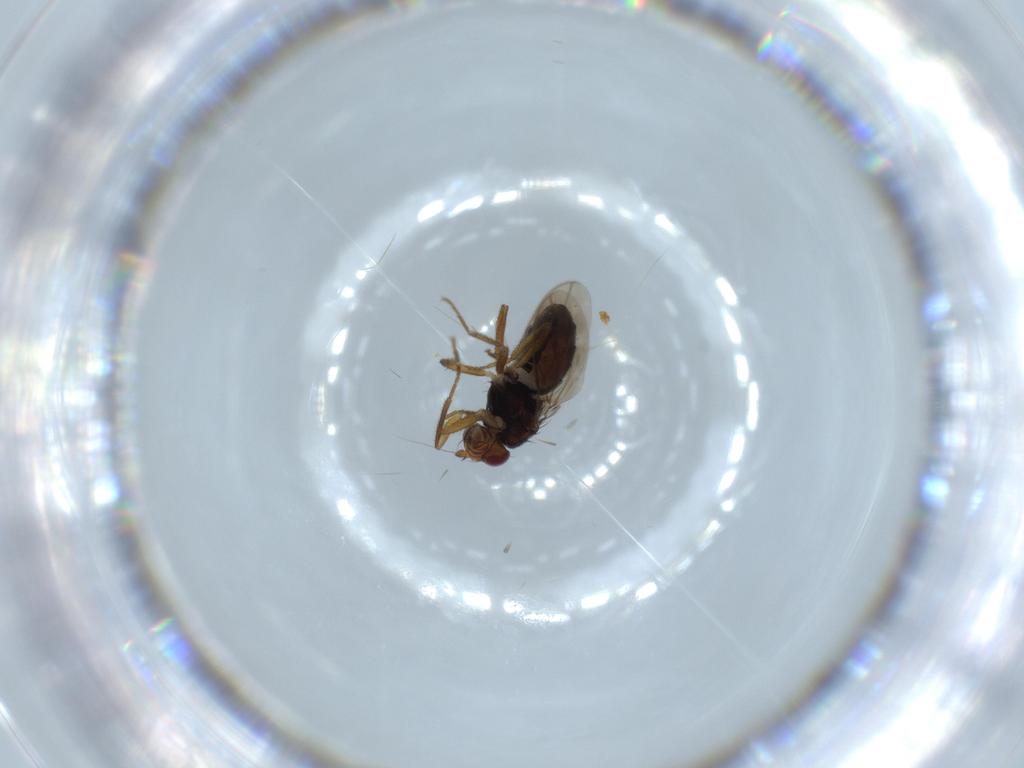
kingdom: Animalia
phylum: Arthropoda
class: Insecta
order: Diptera
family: Sphaeroceridae
